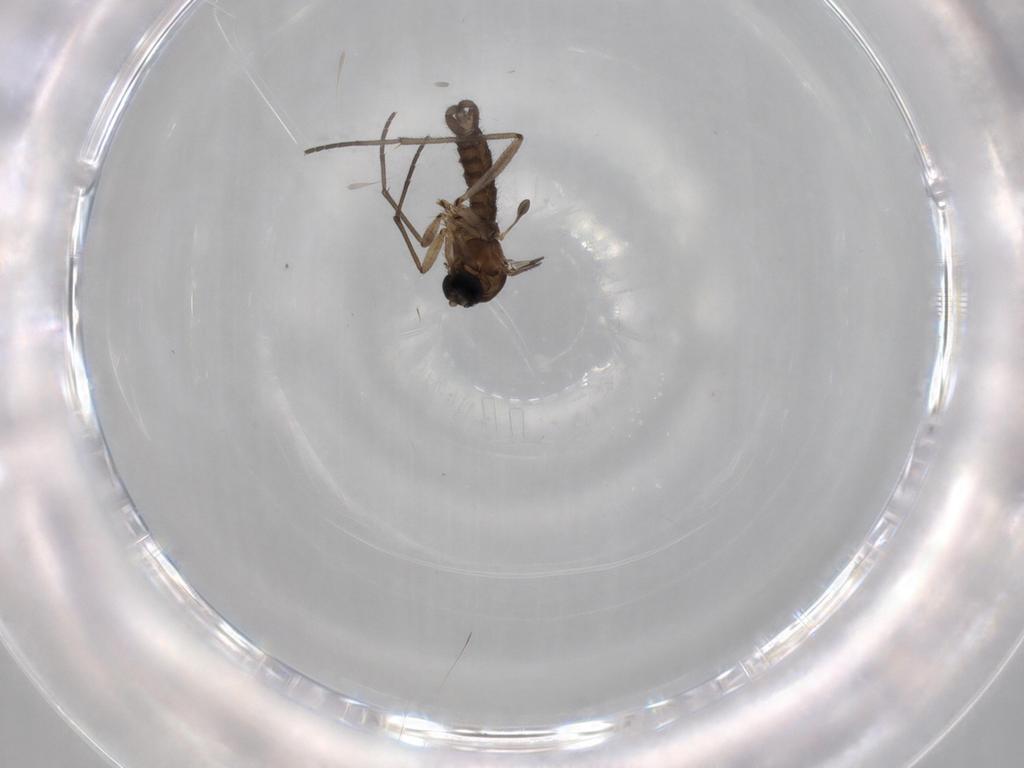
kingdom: Animalia
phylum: Arthropoda
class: Insecta
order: Diptera
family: Sciaridae
